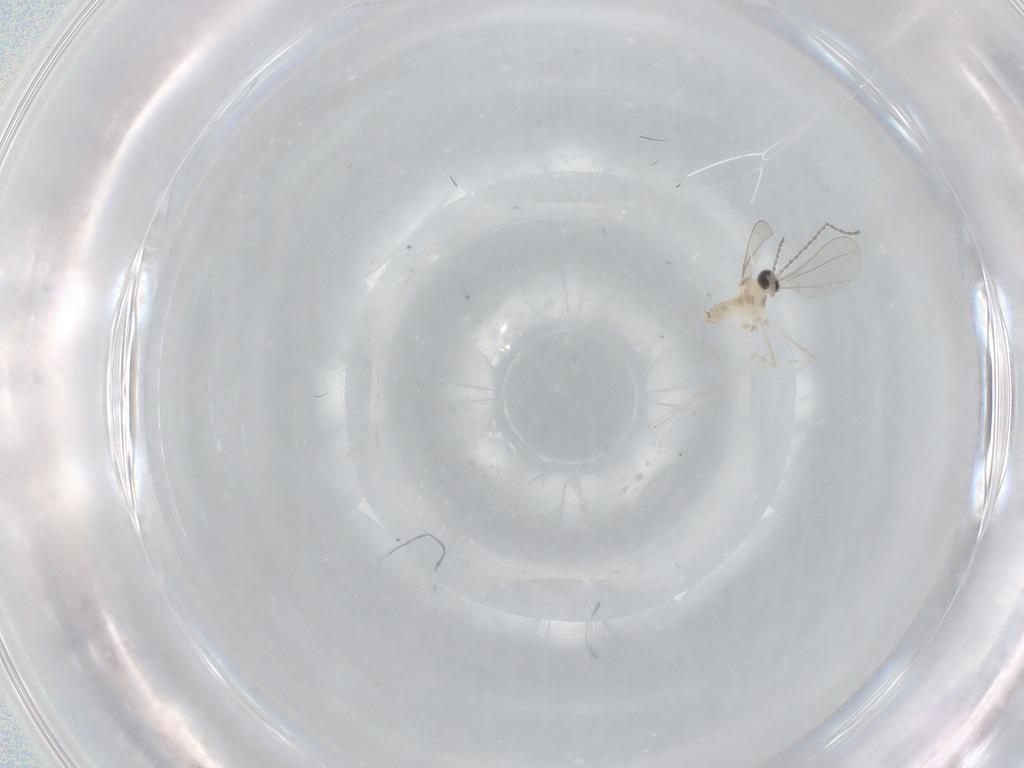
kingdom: Animalia
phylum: Arthropoda
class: Insecta
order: Diptera
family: Cecidomyiidae
